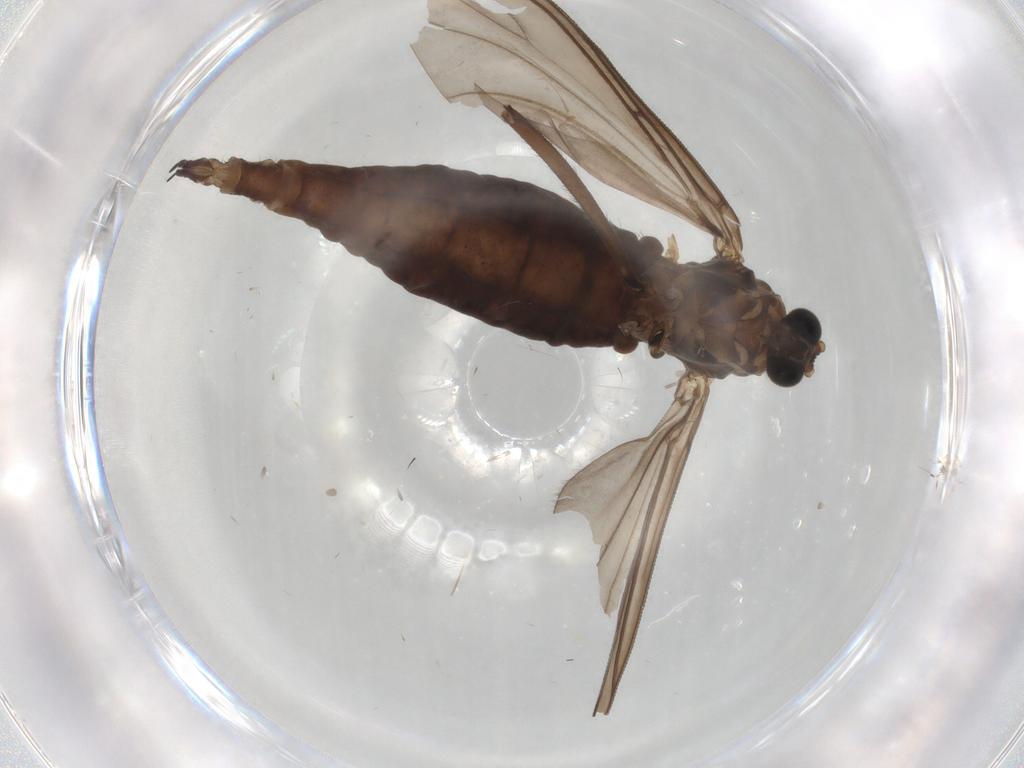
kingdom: Animalia
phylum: Arthropoda
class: Insecta
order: Diptera
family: Sciaridae
